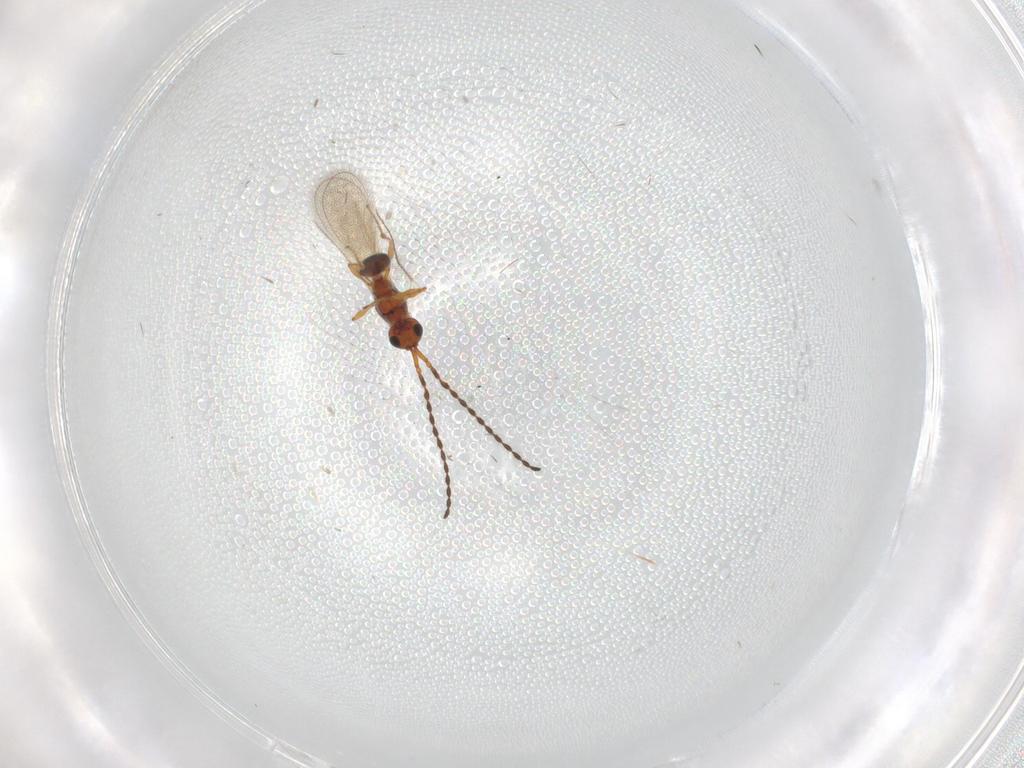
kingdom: Animalia
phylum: Arthropoda
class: Insecta
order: Hymenoptera
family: Diapriidae
